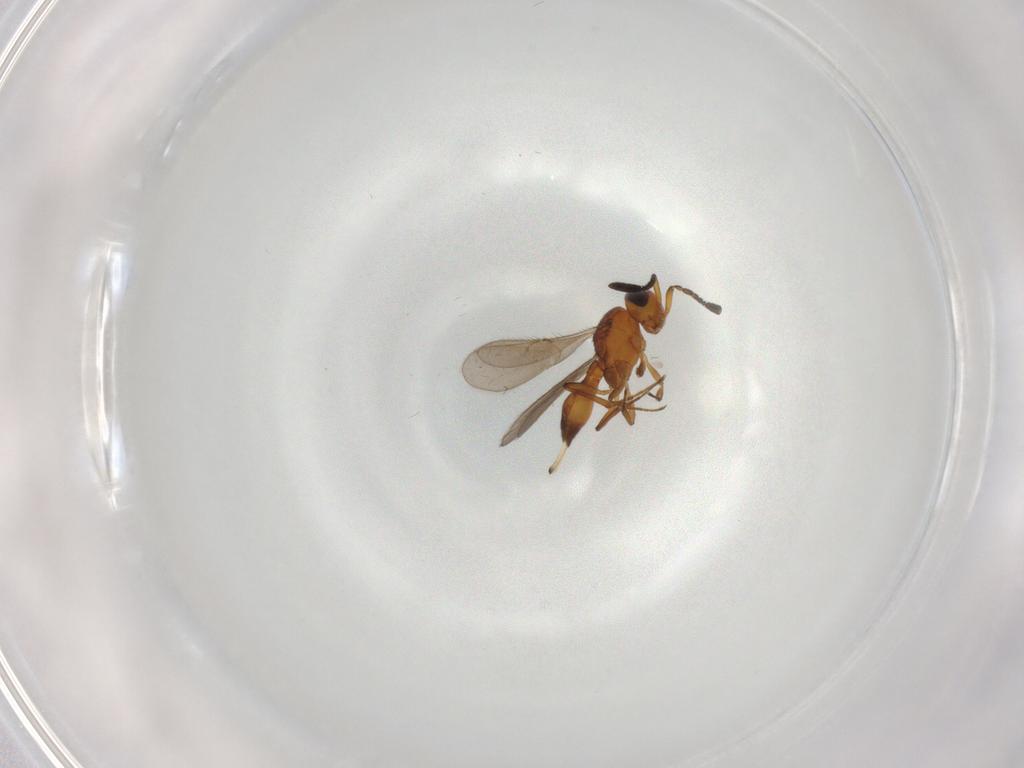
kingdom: Animalia
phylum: Arthropoda
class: Insecta
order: Hymenoptera
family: Scelionidae
